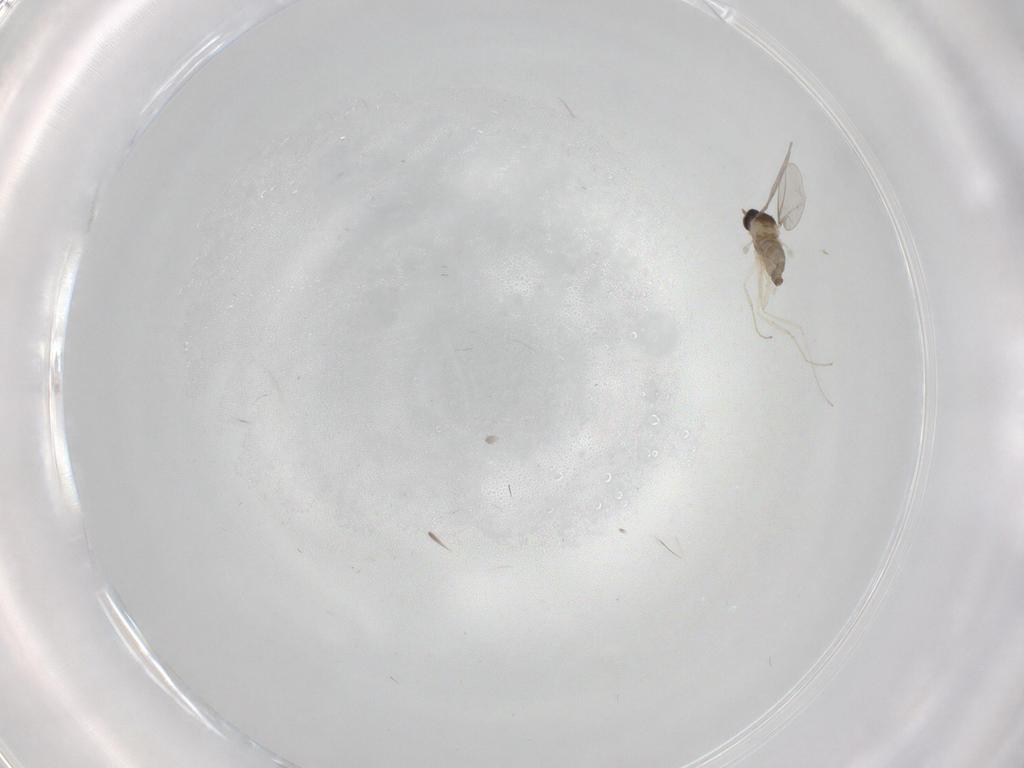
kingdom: Animalia
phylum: Arthropoda
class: Insecta
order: Diptera
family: Cecidomyiidae
